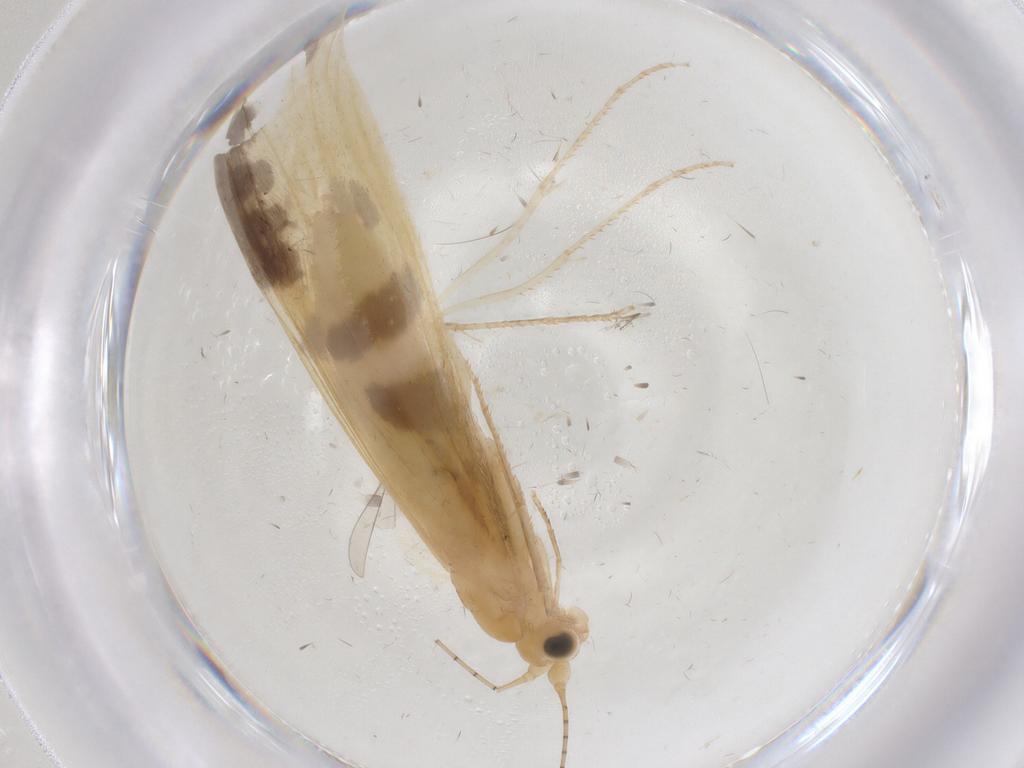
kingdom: Animalia
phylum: Arthropoda
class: Insecta
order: Trichoptera
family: Leptoceridae
